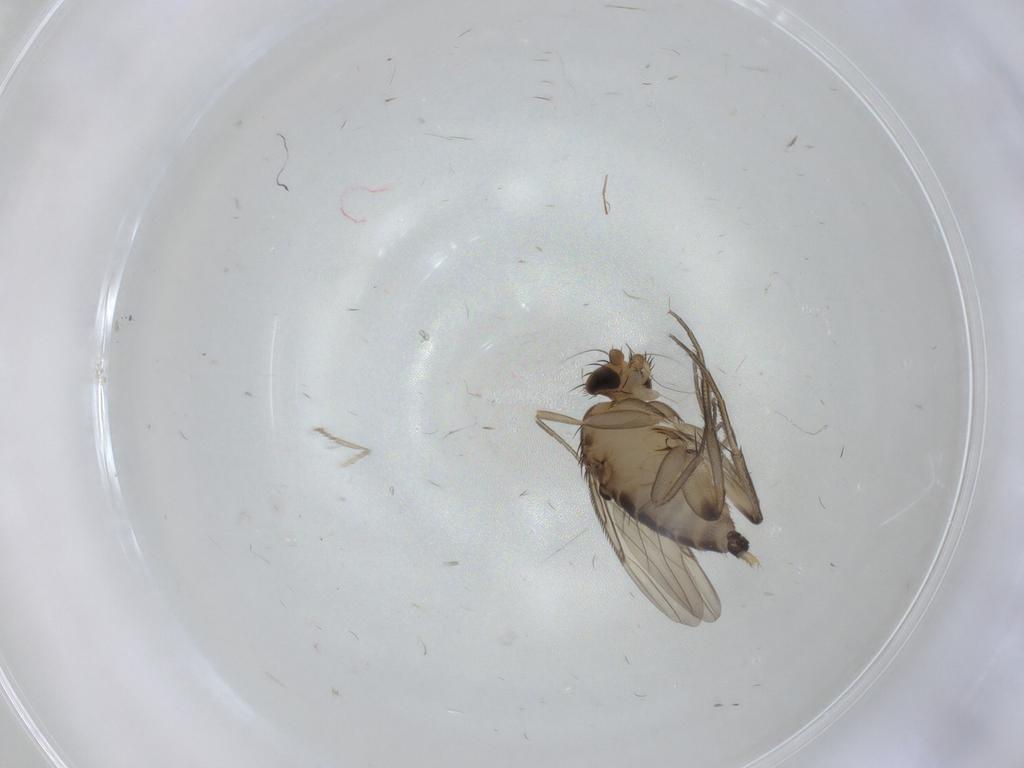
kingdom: Animalia
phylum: Arthropoda
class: Insecta
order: Diptera
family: Cecidomyiidae
